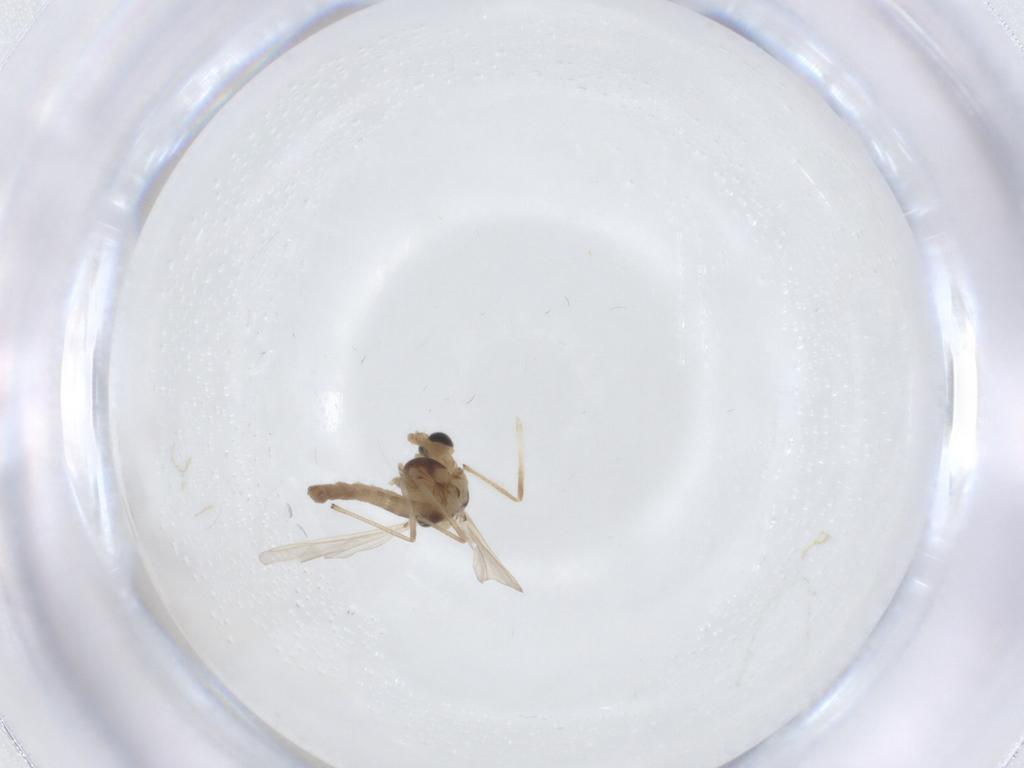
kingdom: Animalia
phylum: Arthropoda
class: Insecta
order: Diptera
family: Chironomidae
